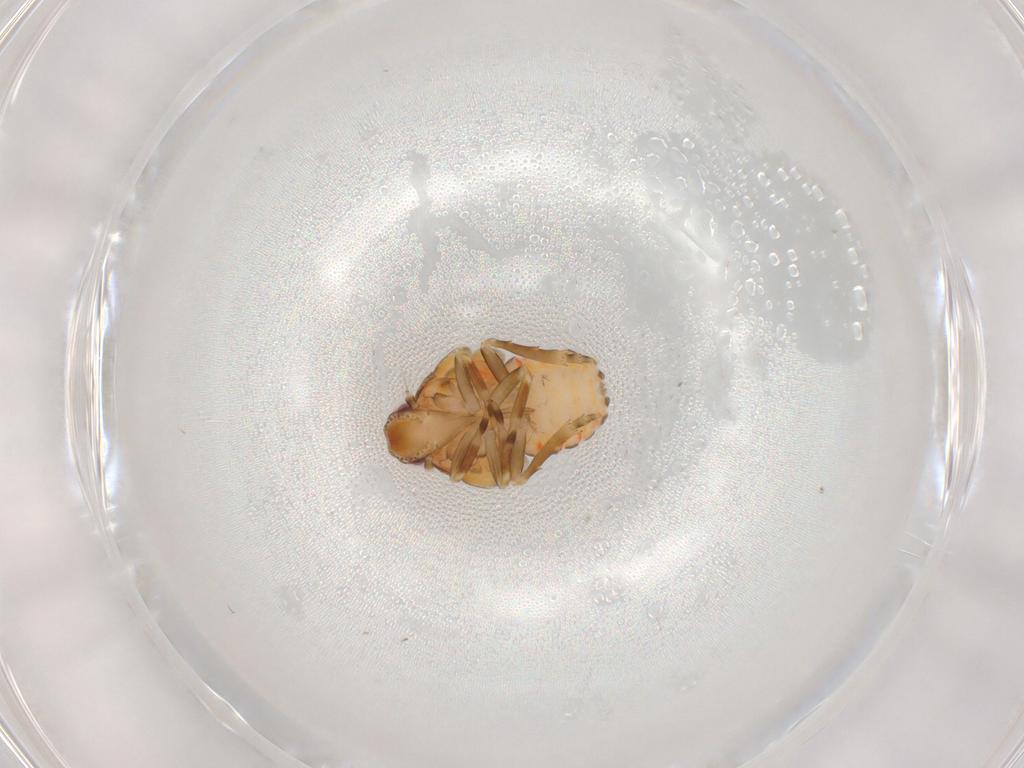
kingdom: Animalia
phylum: Arthropoda
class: Insecta
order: Hemiptera
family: Flatidae
